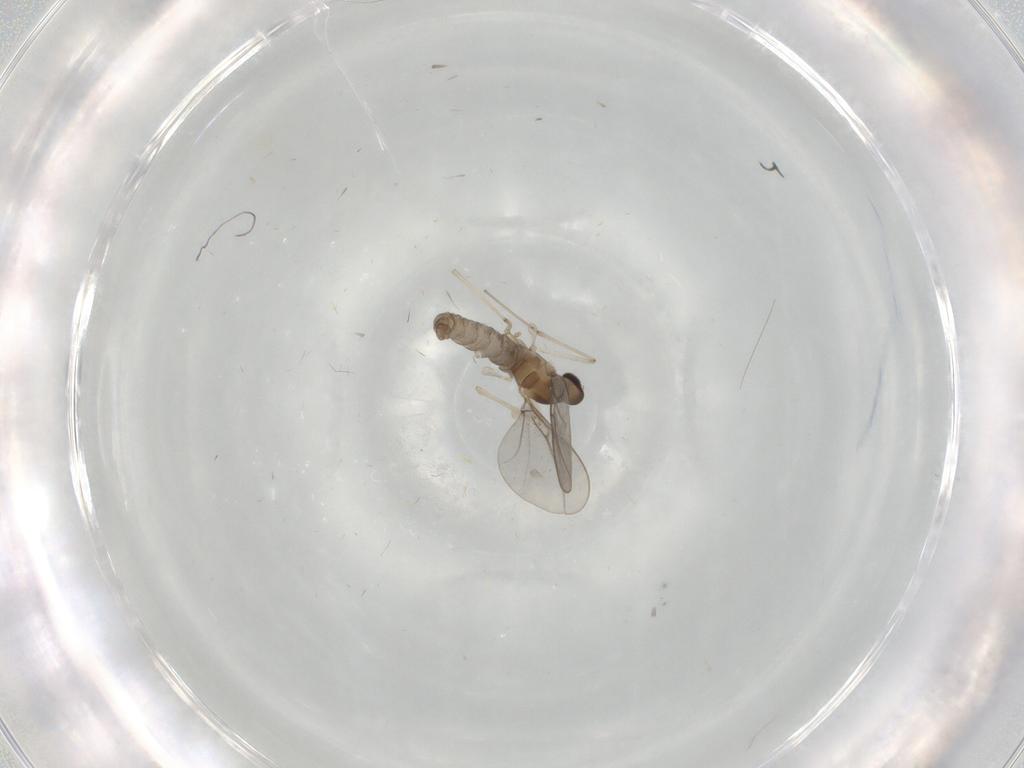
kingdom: Animalia
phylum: Arthropoda
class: Insecta
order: Diptera
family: Cecidomyiidae
